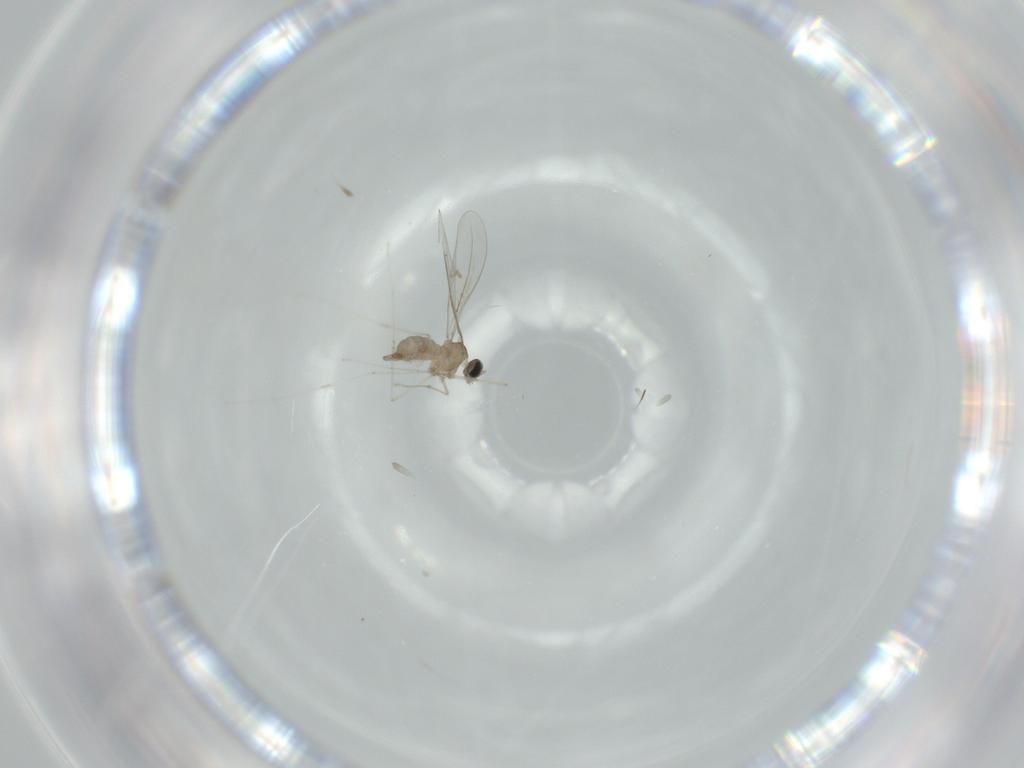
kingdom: Animalia
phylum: Arthropoda
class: Insecta
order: Diptera
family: Cecidomyiidae
